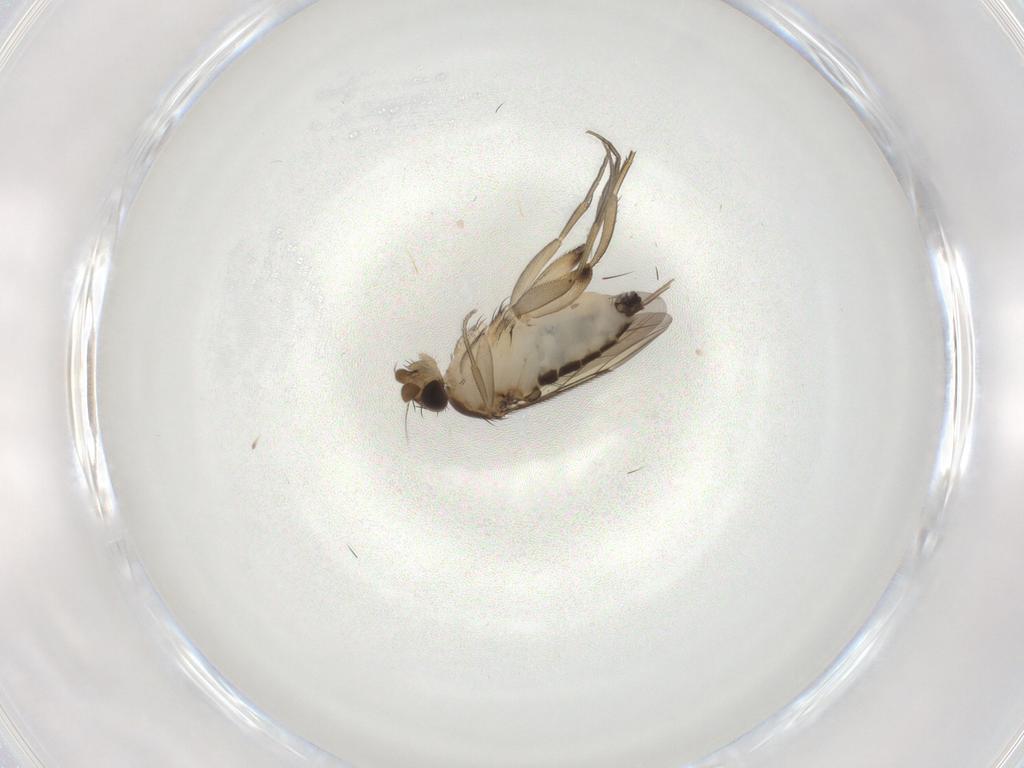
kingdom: Animalia
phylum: Arthropoda
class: Insecta
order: Diptera
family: Phoridae
